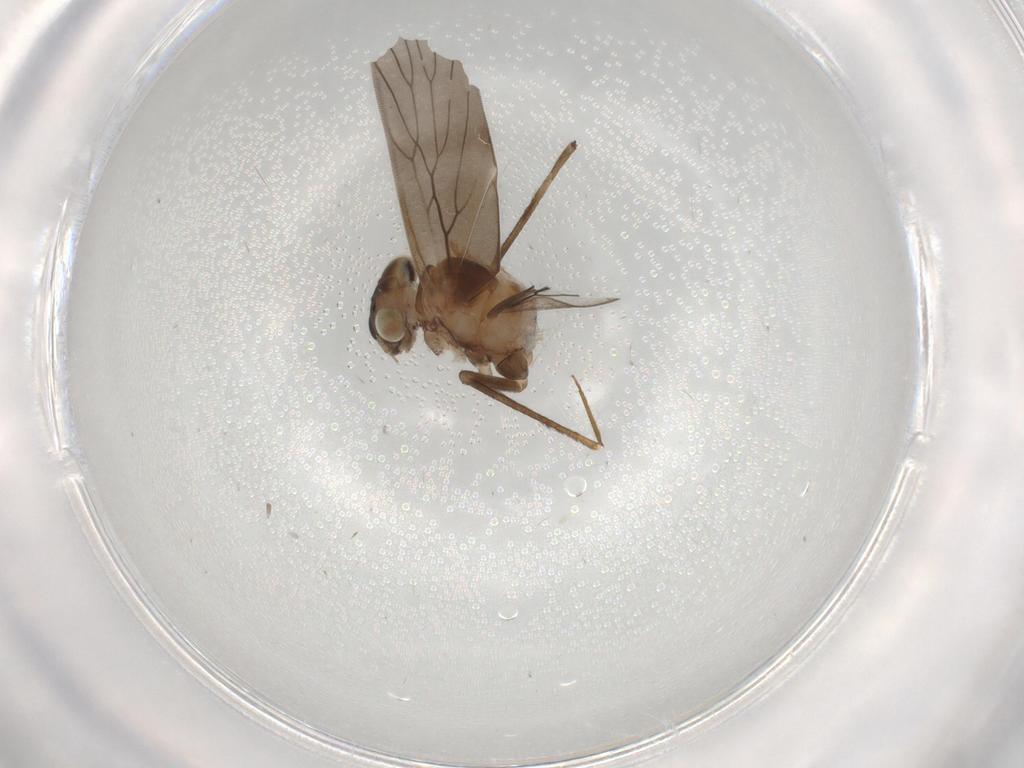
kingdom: Animalia
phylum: Arthropoda
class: Insecta
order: Psocodea
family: Lepidopsocidae
